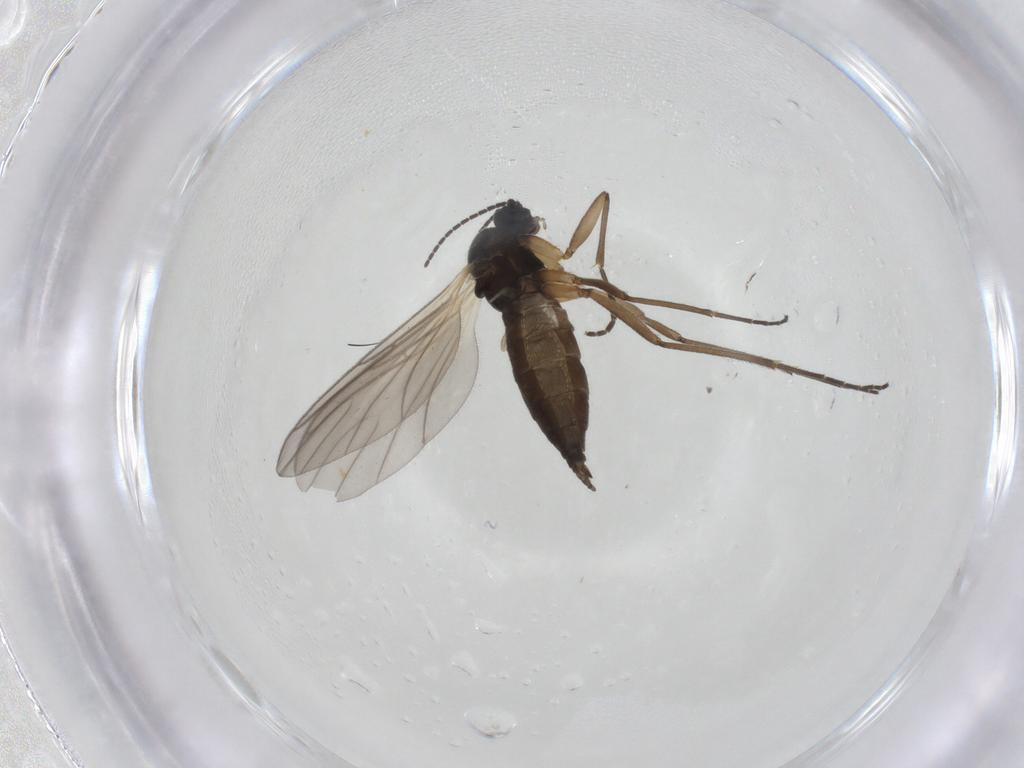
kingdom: Animalia
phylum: Arthropoda
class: Insecta
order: Diptera
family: Sciaridae
